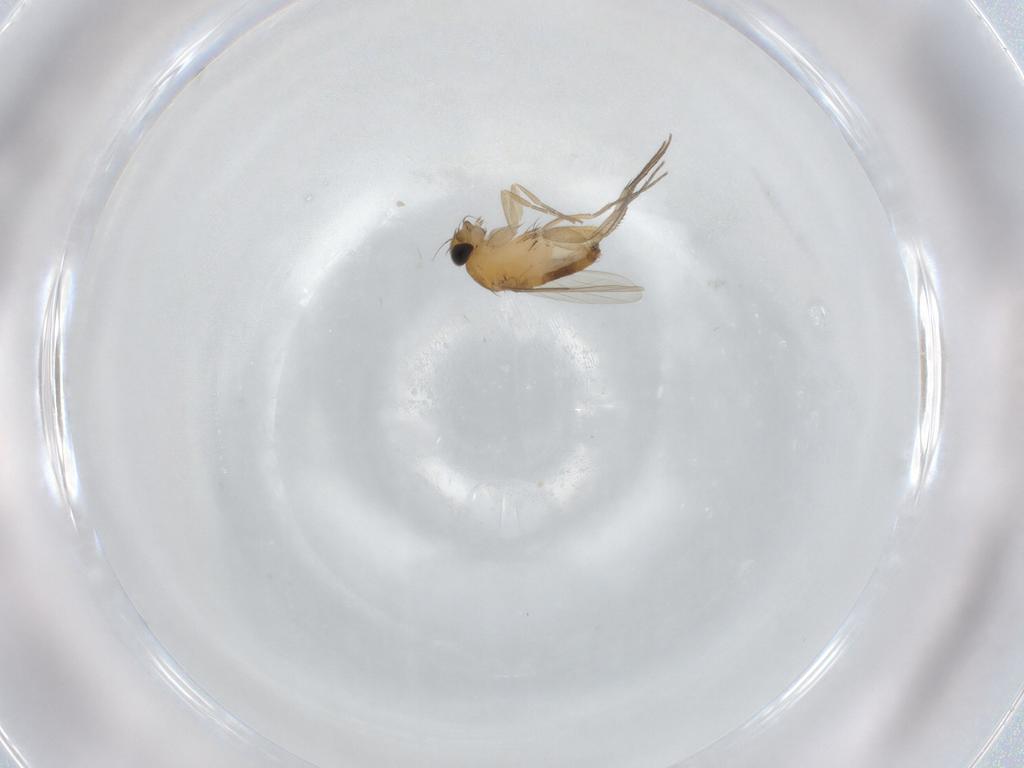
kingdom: Animalia
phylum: Arthropoda
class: Insecta
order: Diptera
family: Phoridae
